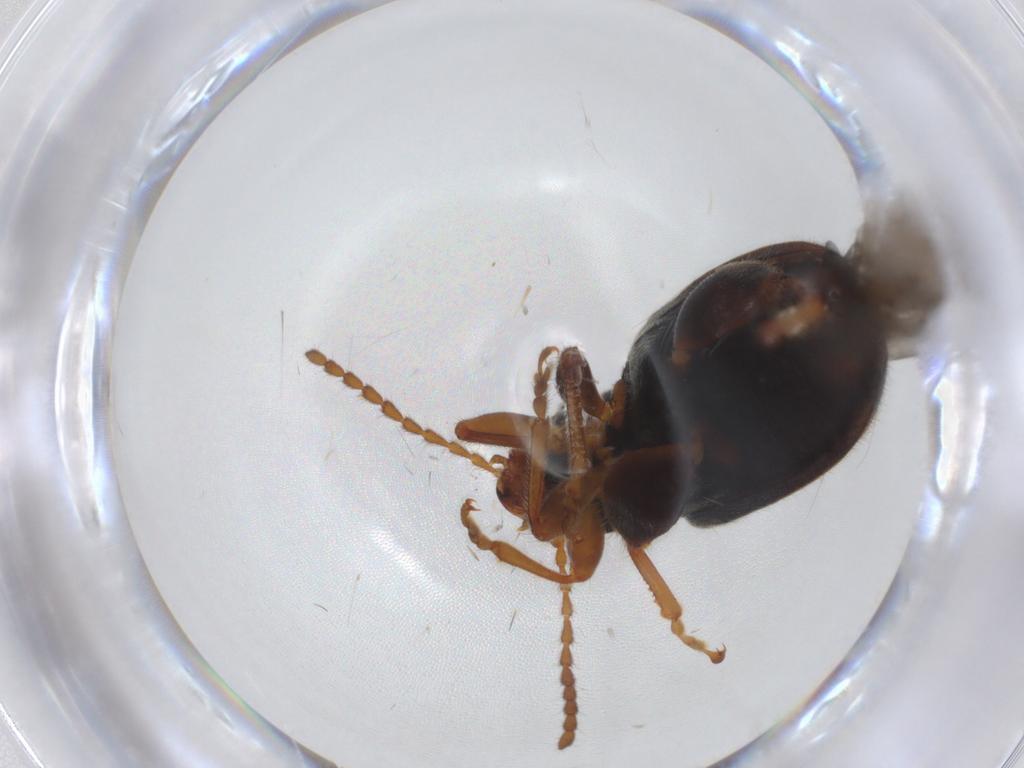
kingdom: Animalia
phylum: Arthropoda
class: Insecta
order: Coleoptera
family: Chrysomelidae
